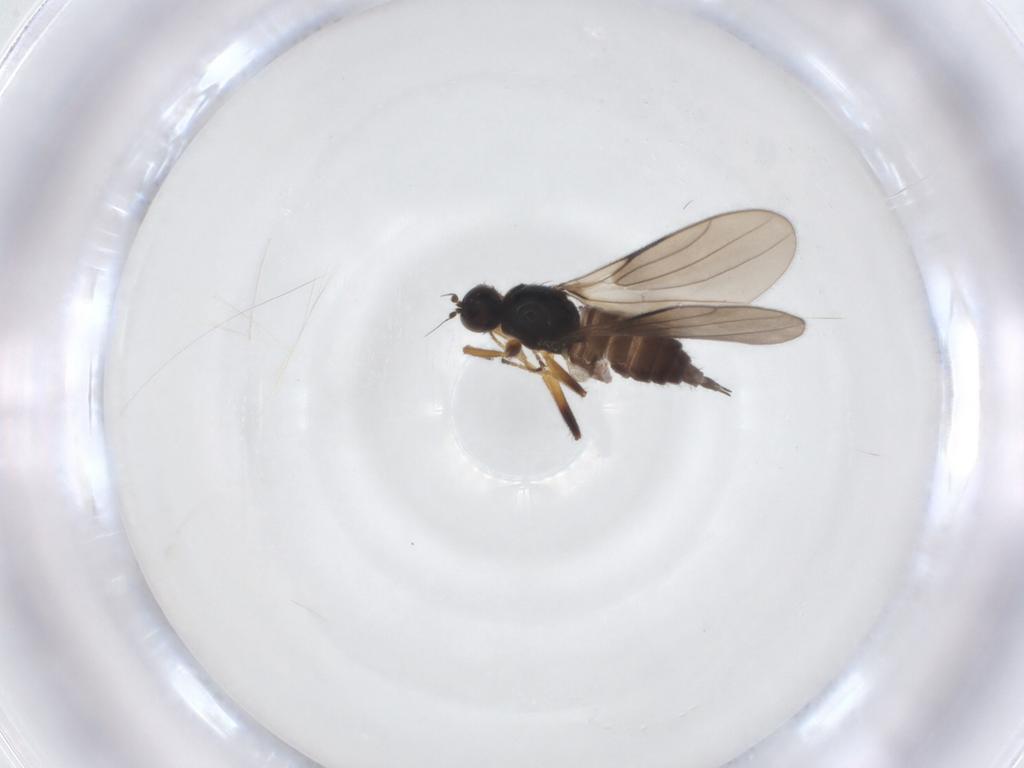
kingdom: Animalia
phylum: Arthropoda
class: Insecta
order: Diptera
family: Hybotidae
